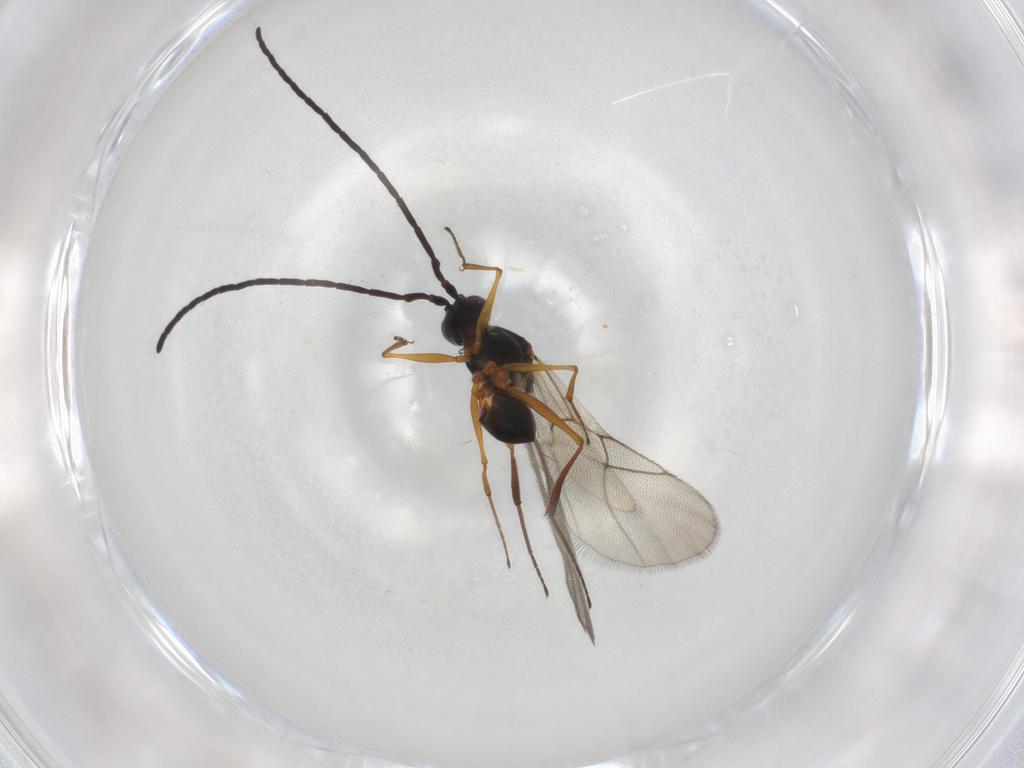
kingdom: Animalia
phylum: Arthropoda
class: Insecta
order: Hymenoptera
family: Figitidae
